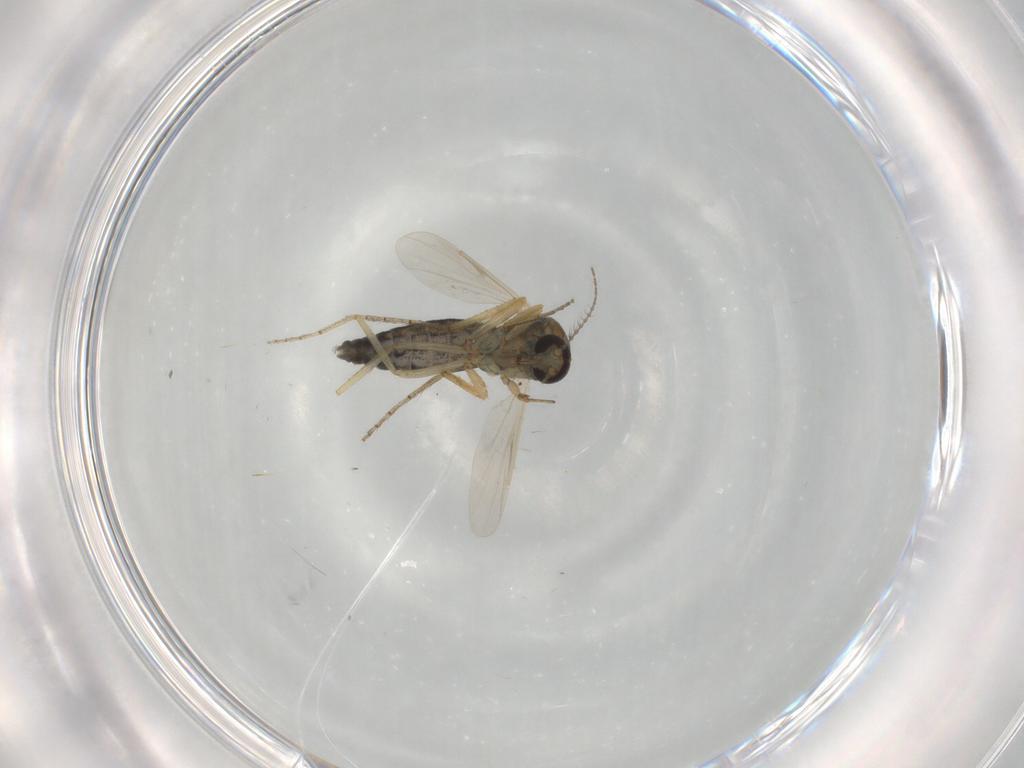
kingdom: Animalia
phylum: Arthropoda
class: Insecta
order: Diptera
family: Ceratopogonidae
